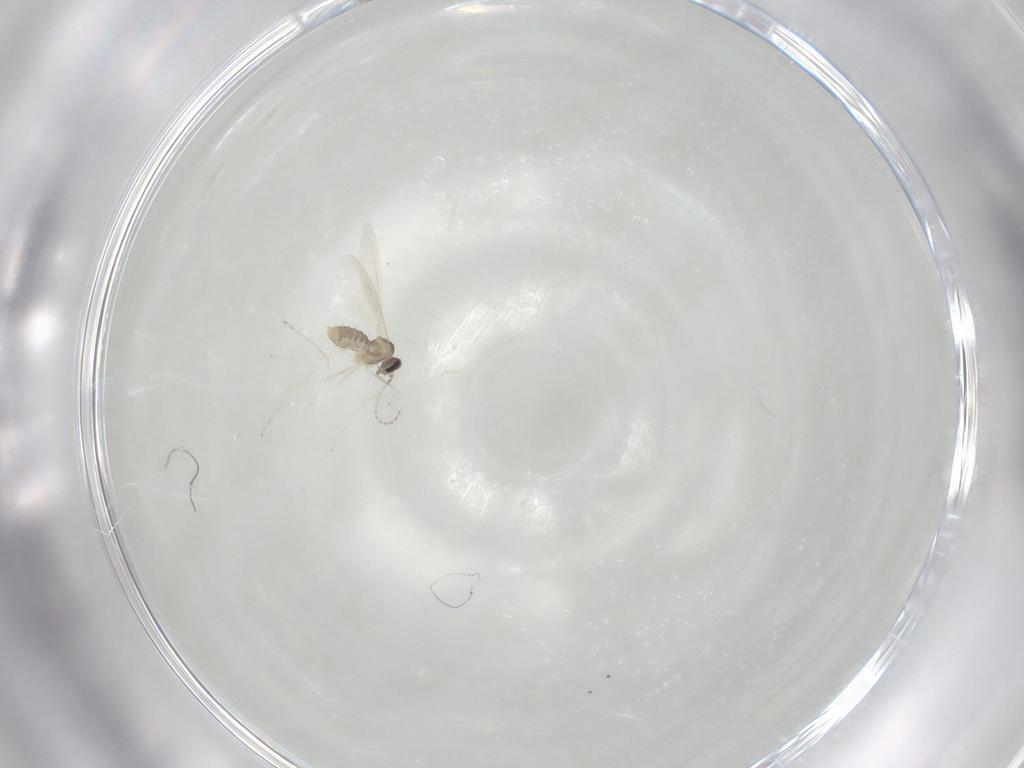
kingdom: Animalia
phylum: Arthropoda
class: Insecta
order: Diptera
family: Cecidomyiidae
